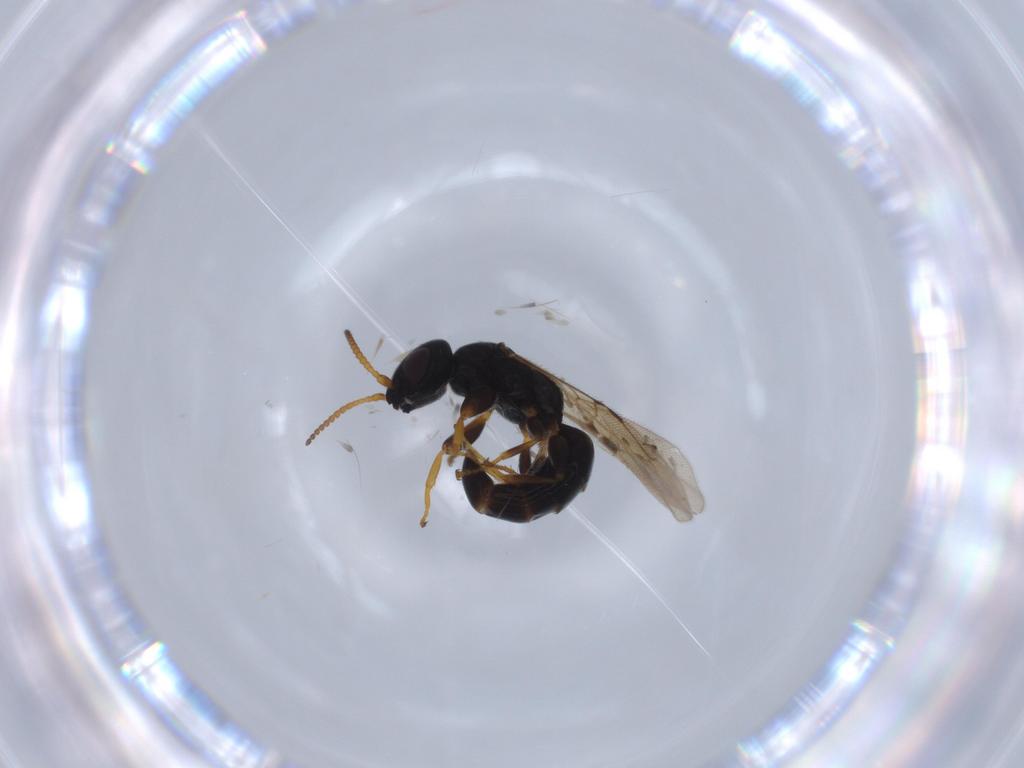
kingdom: Animalia
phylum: Arthropoda
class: Insecta
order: Hymenoptera
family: Bethylidae
